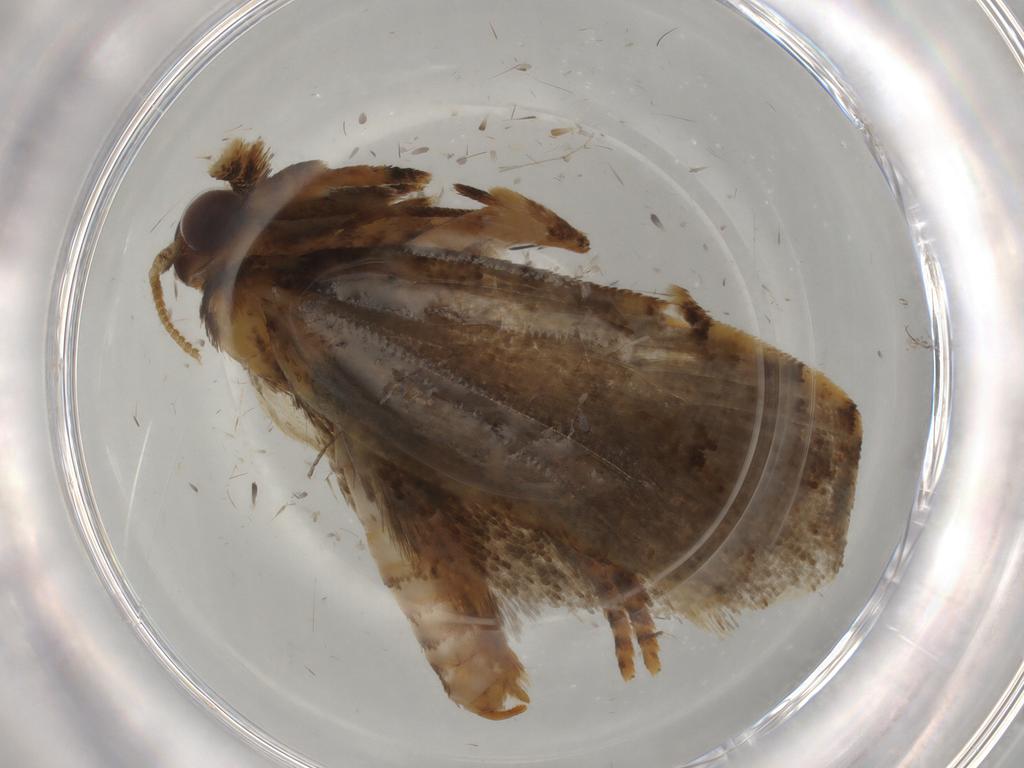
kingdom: Animalia
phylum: Arthropoda
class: Insecta
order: Lepidoptera
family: Tineidae
